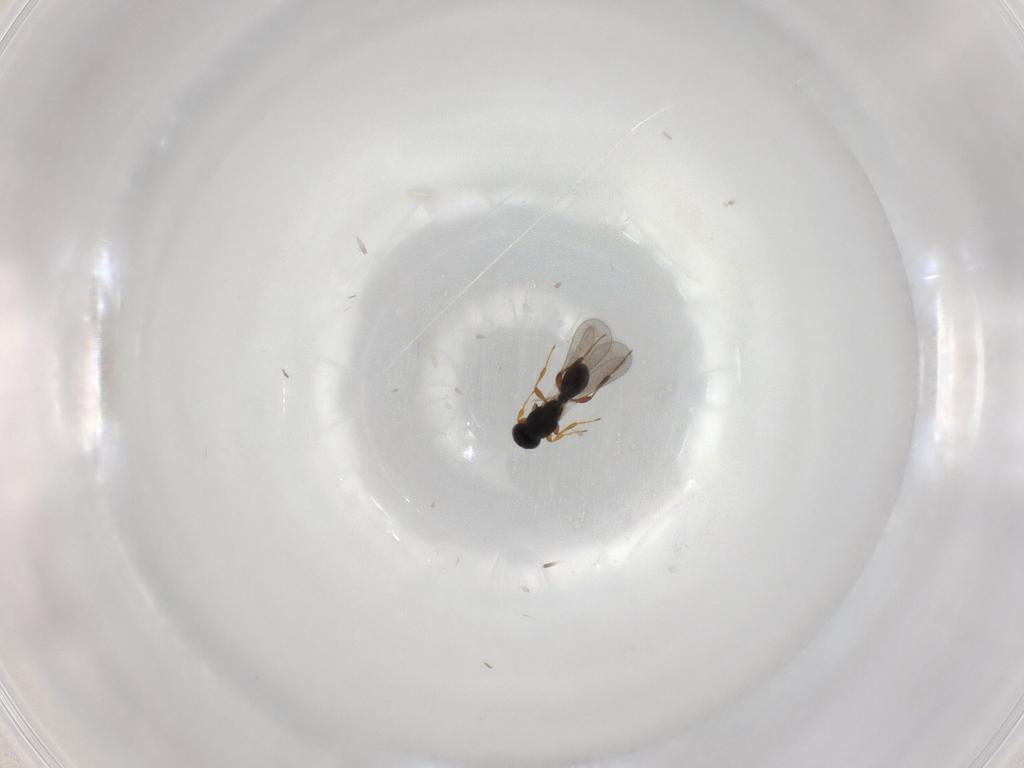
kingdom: Animalia
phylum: Arthropoda
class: Insecta
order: Hymenoptera
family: Platygastridae
